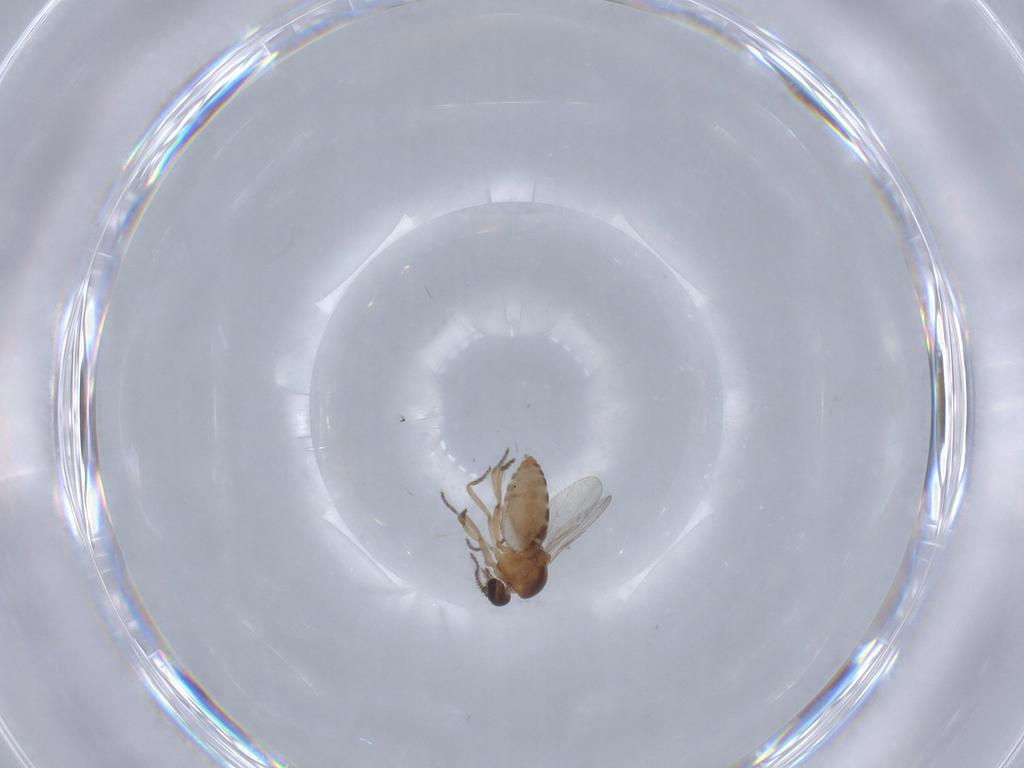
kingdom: Animalia
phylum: Arthropoda
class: Insecta
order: Diptera
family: Ceratopogonidae
